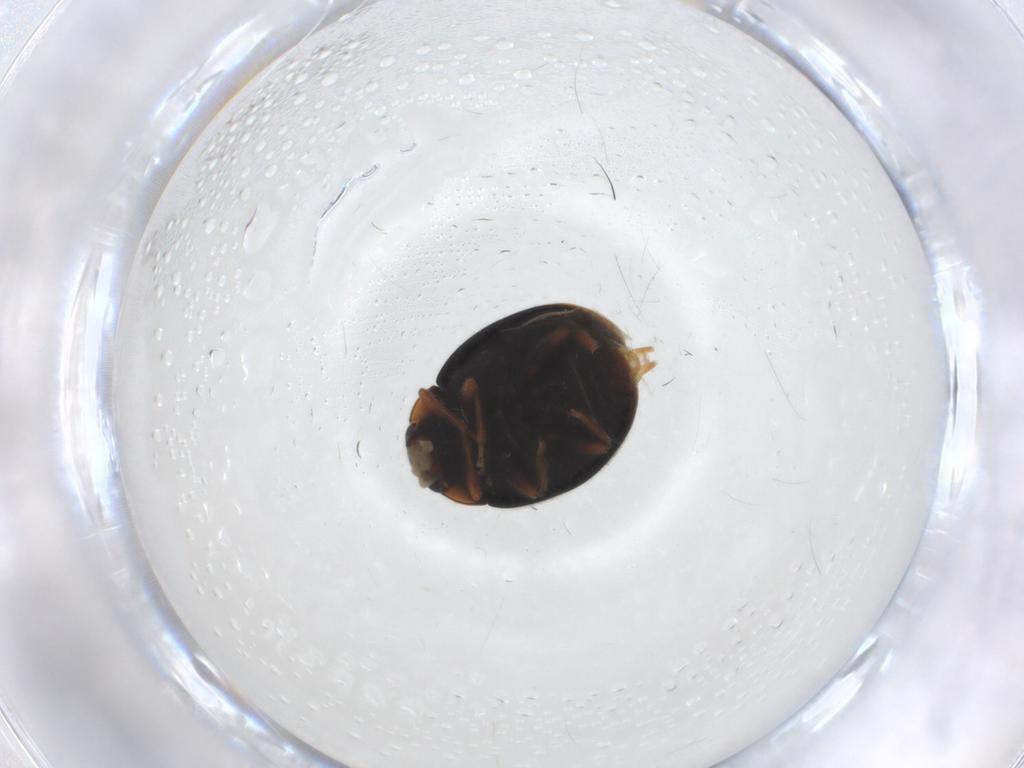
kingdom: Animalia
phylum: Arthropoda
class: Insecta
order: Coleoptera
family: Coccinellidae
